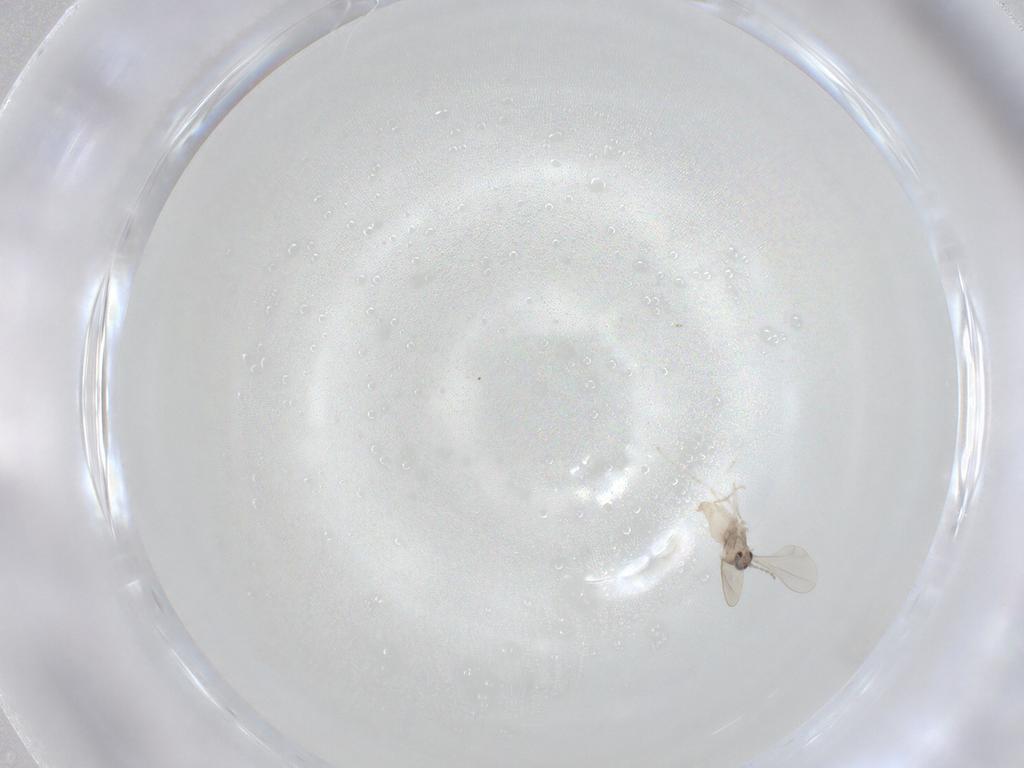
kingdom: Animalia
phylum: Arthropoda
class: Insecta
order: Diptera
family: Cecidomyiidae
